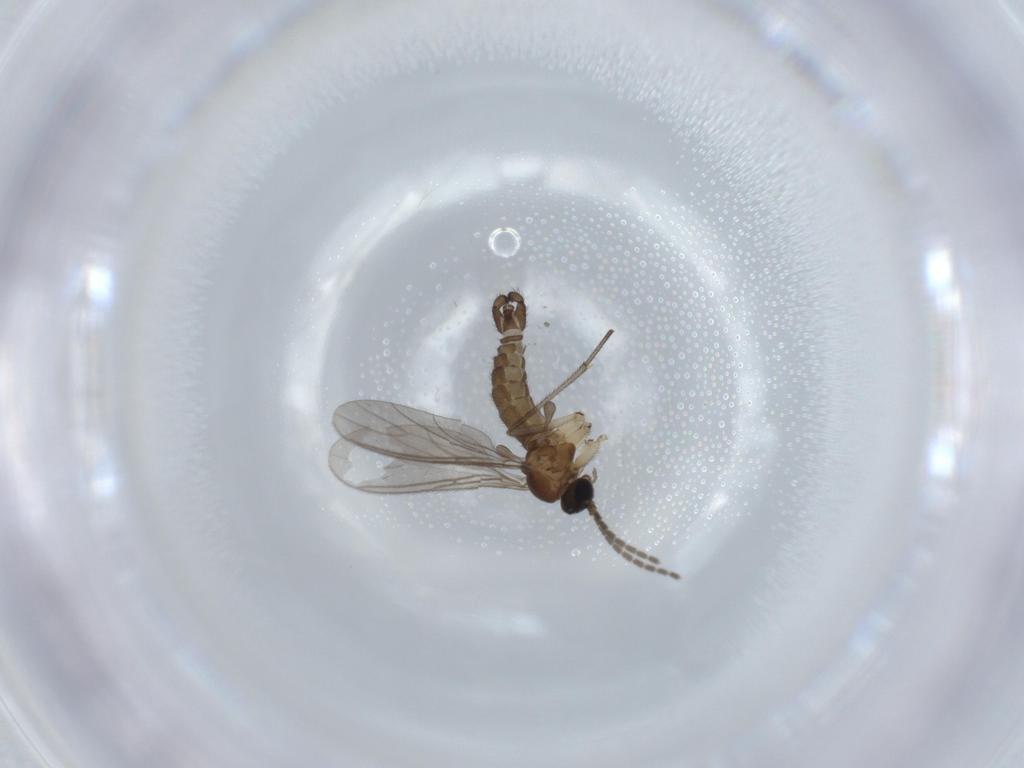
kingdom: Animalia
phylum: Arthropoda
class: Insecta
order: Diptera
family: Sciaridae
